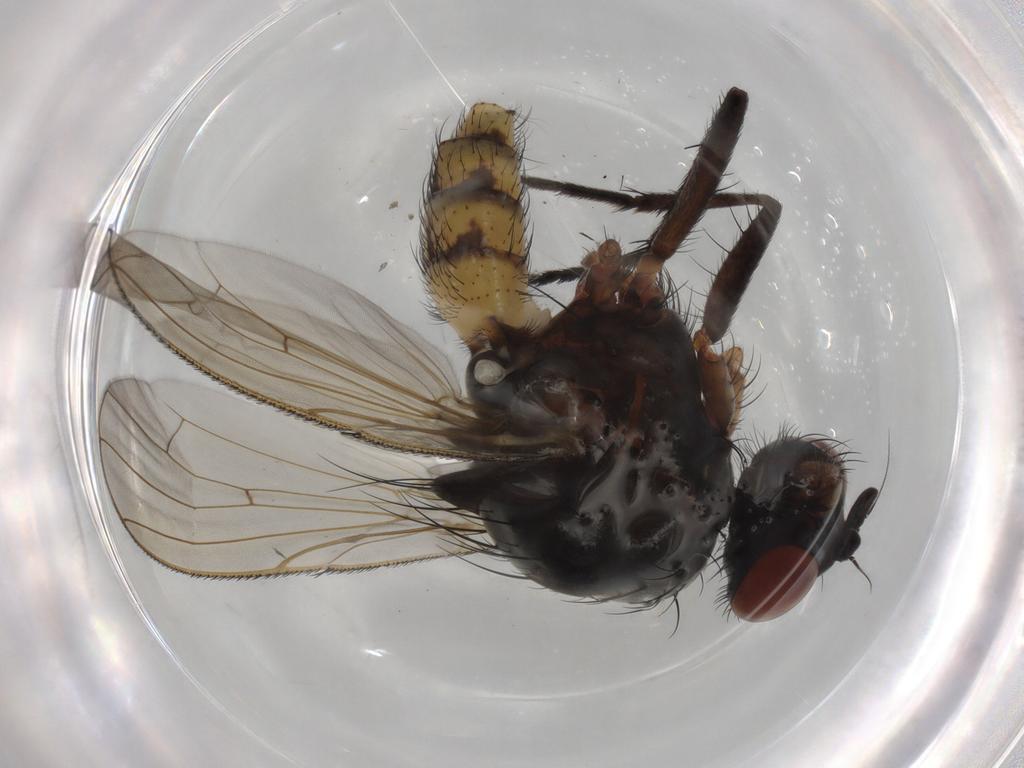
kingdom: Animalia
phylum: Arthropoda
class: Insecta
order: Diptera
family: Anthomyiidae
